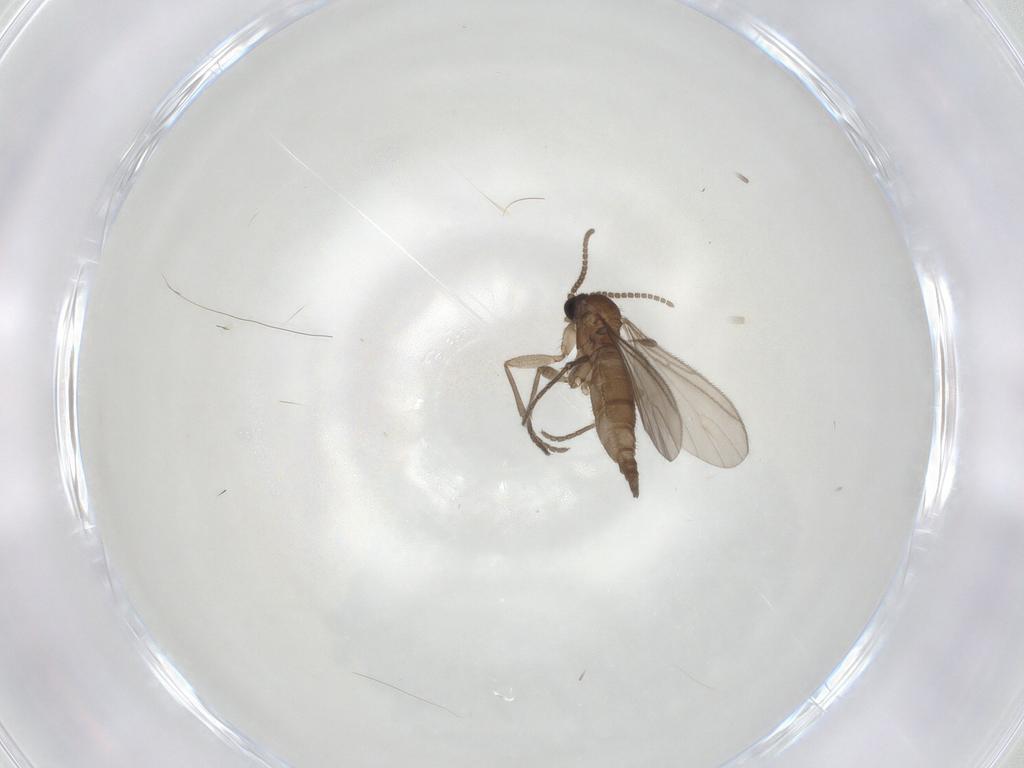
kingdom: Animalia
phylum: Arthropoda
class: Insecta
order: Diptera
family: Sciaridae
